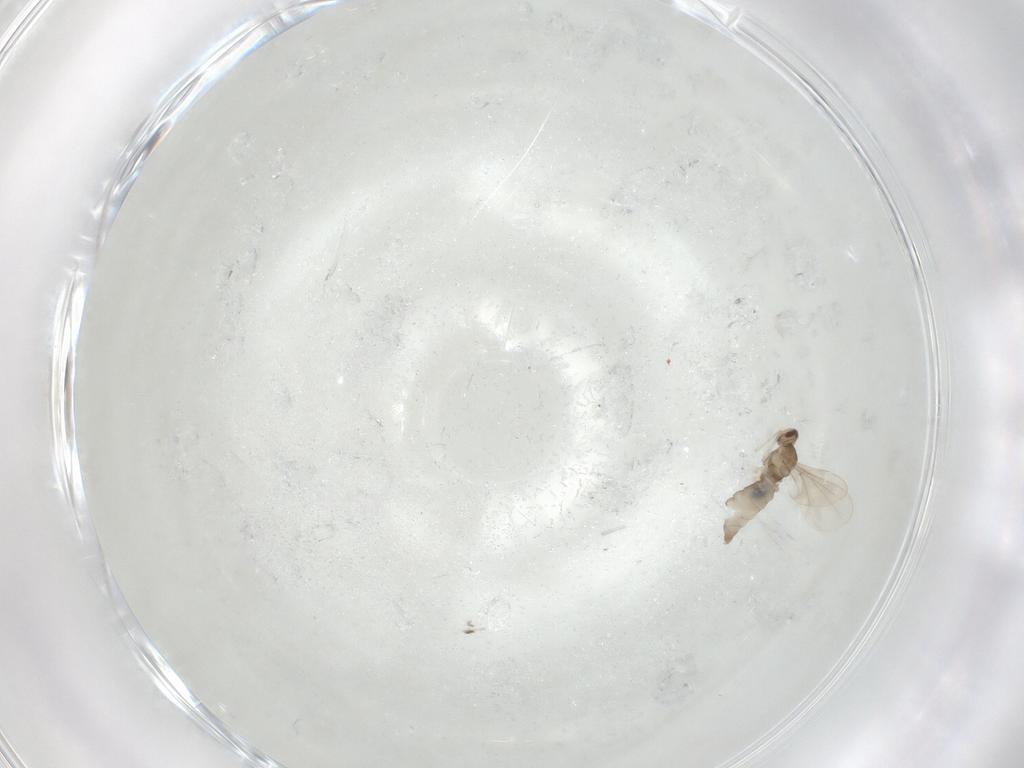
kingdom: Animalia
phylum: Arthropoda
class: Insecta
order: Diptera
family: Cecidomyiidae
